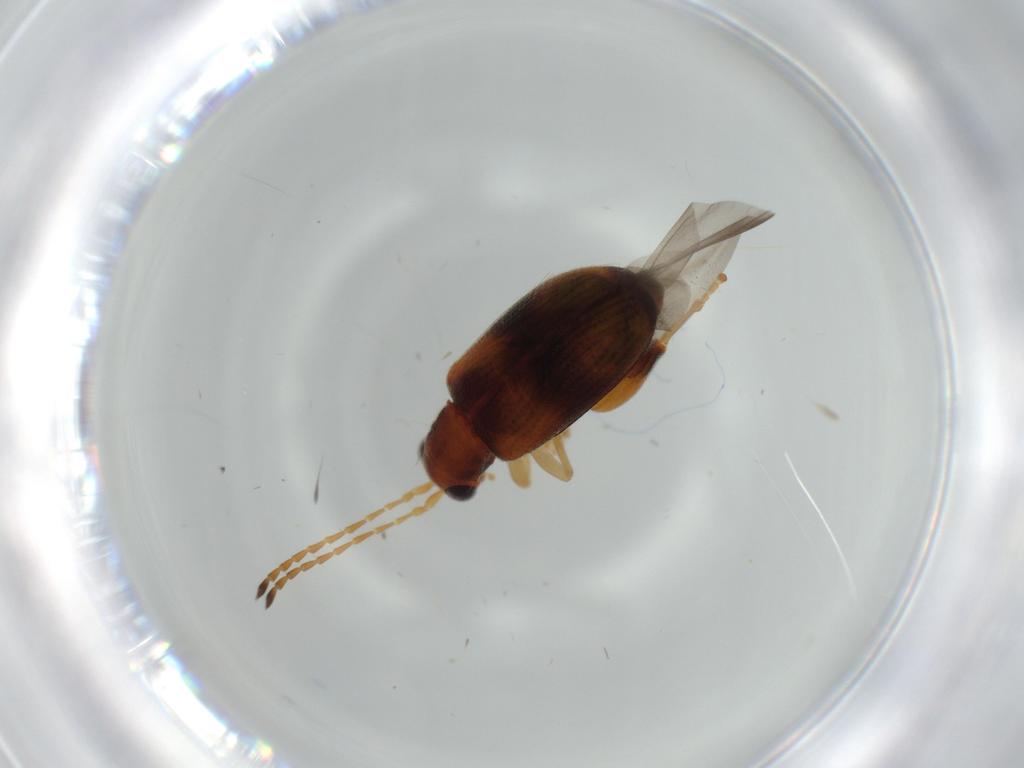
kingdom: Animalia
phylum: Arthropoda
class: Insecta
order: Coleoptera
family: Chrysomelidae
